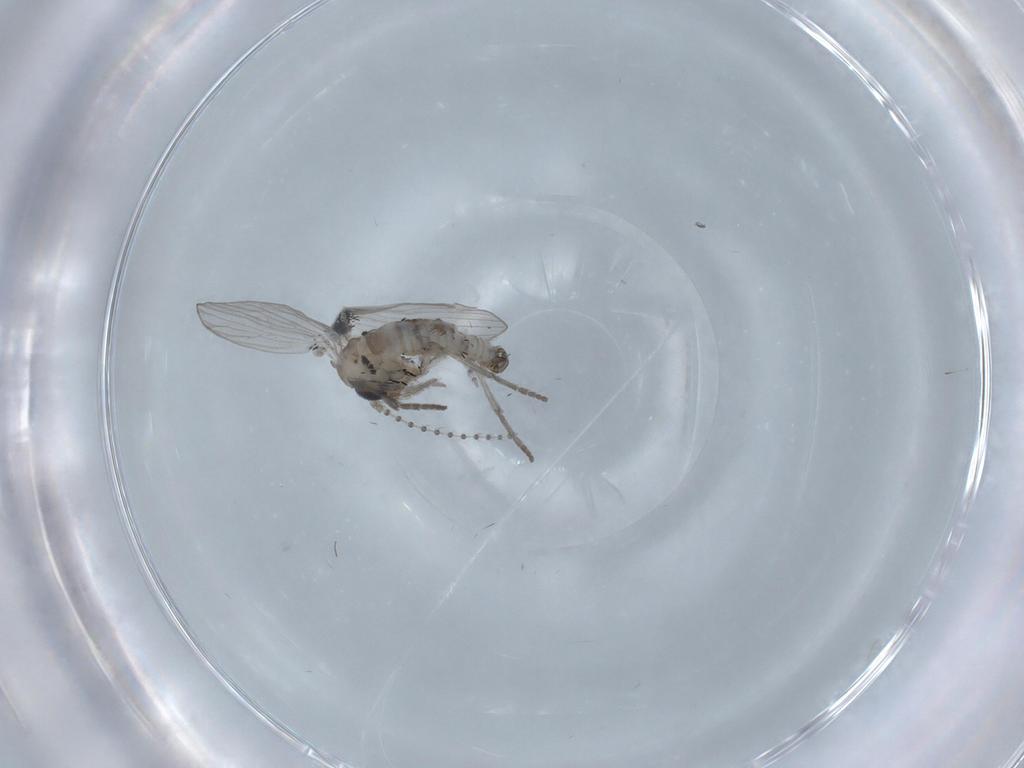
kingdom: Animalia
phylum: Arthropoda
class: Insecta
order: Diptera
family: Psychodidae
